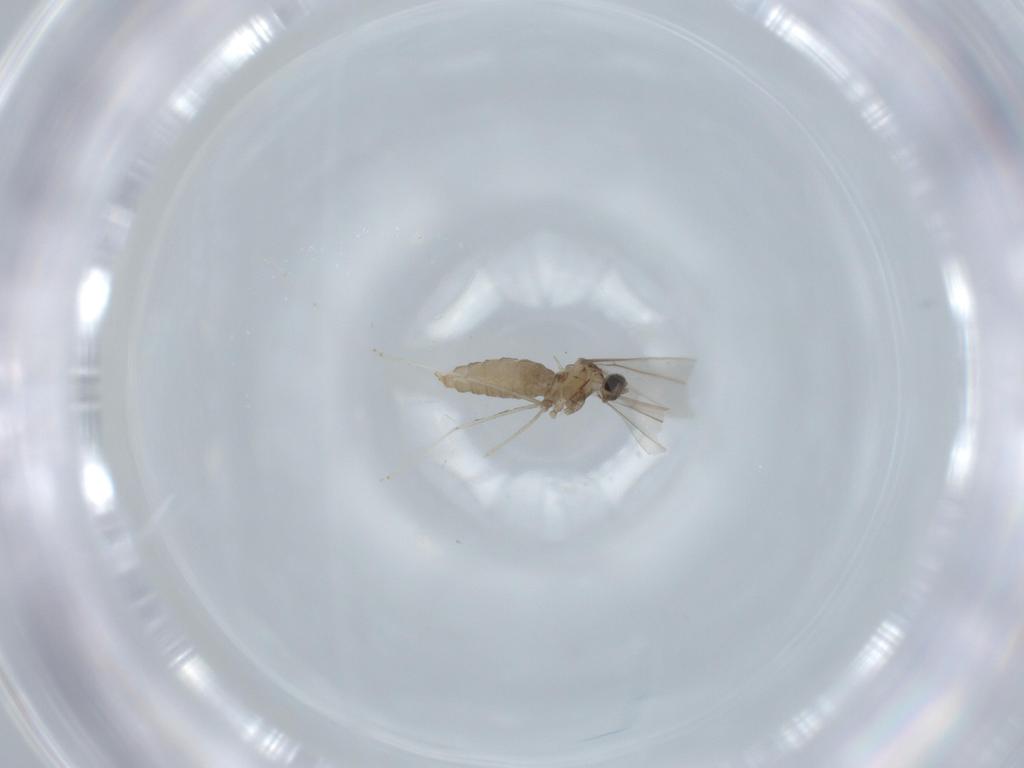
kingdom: Animalia
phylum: Arthropoda
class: Insecta
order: Diptera
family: Cecidomyiidae
